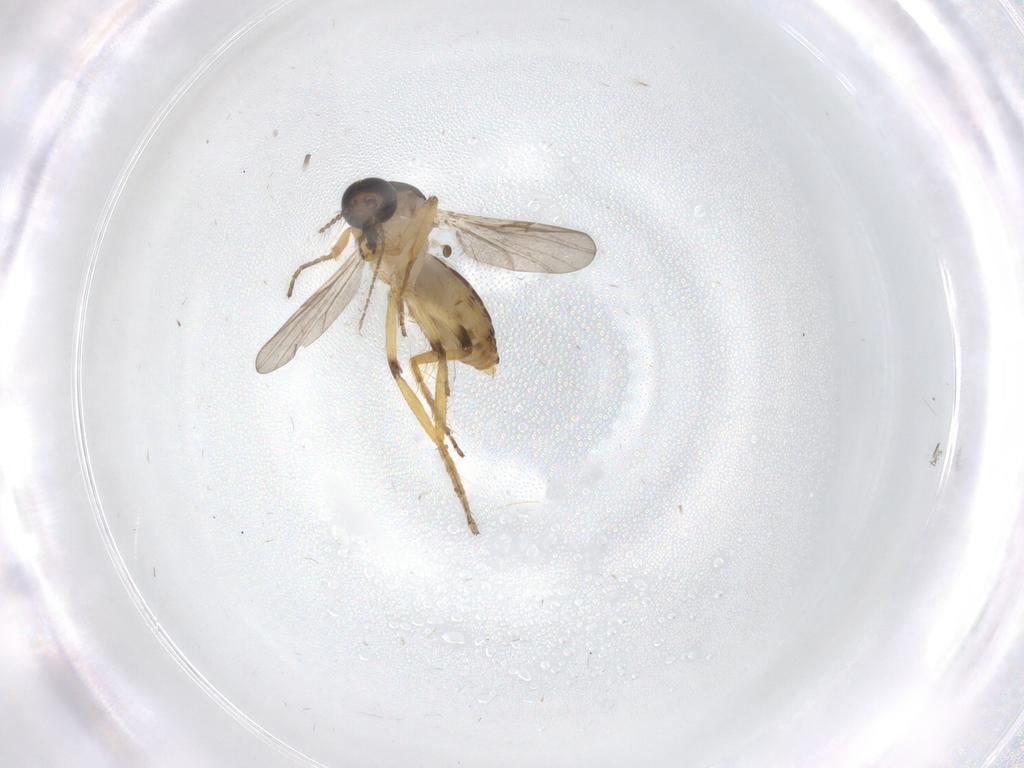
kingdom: Animalia
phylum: Arthropoda
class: Insecta
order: Diptera
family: Ceratopogonidae
